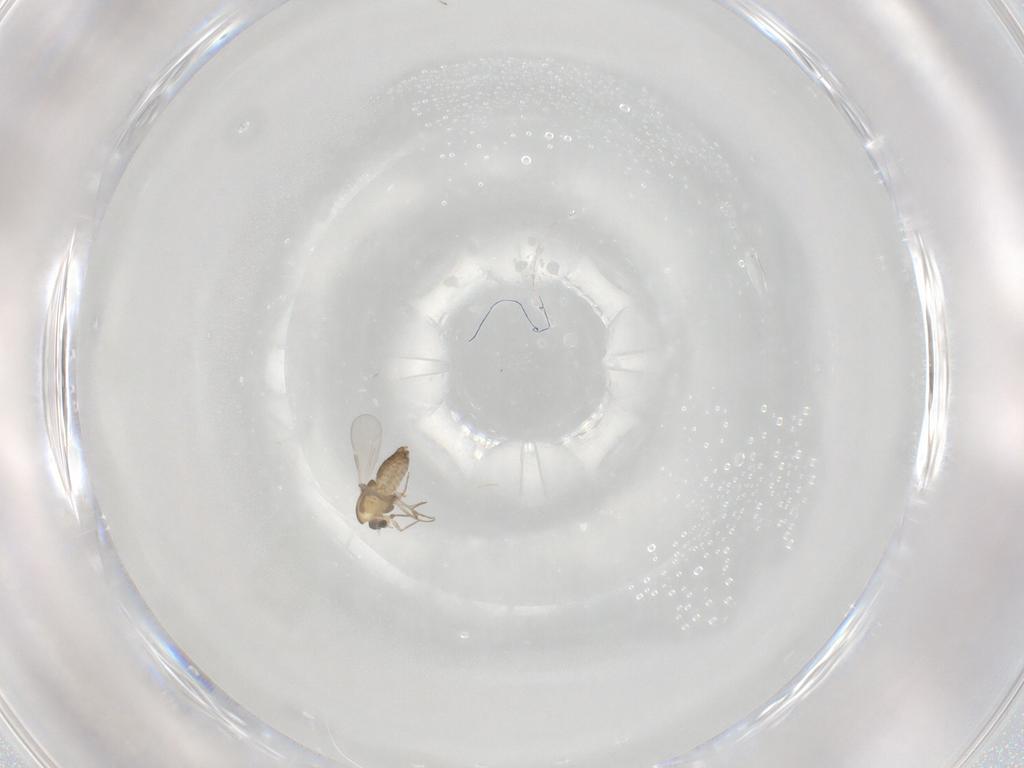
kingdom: Animalia
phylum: Arthropoda
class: Insecta
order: Diptera
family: Chironomidae
